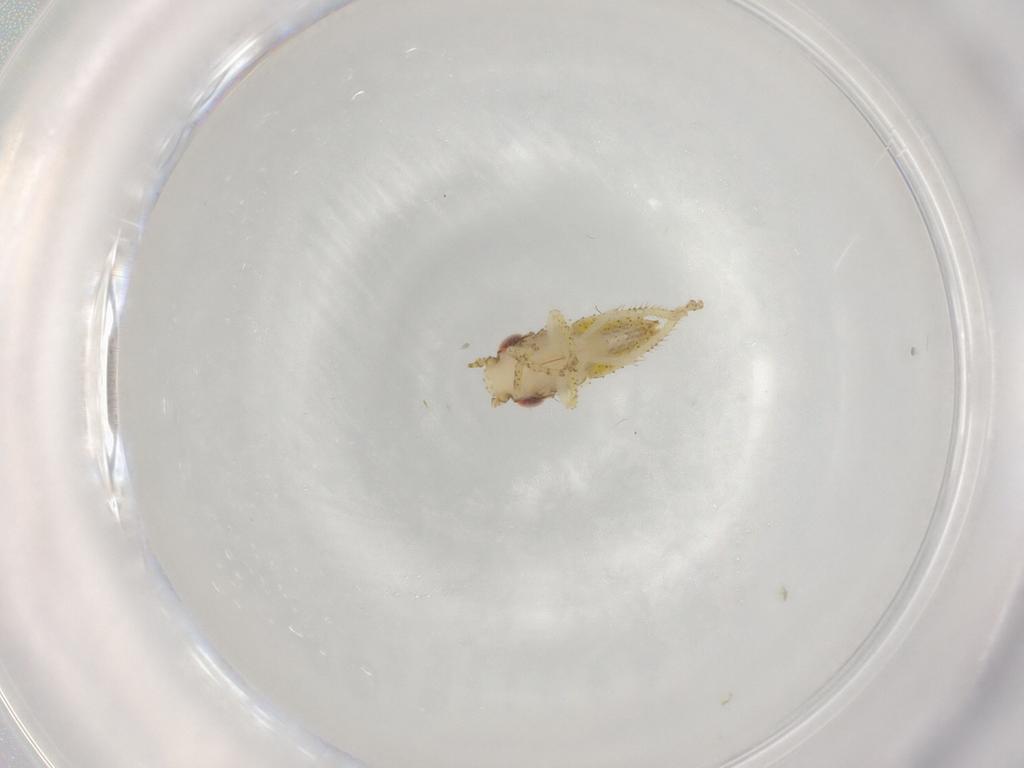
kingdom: Animalia
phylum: Arthropoda
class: Insecta
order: Hemiptera
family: Cicadellidae
